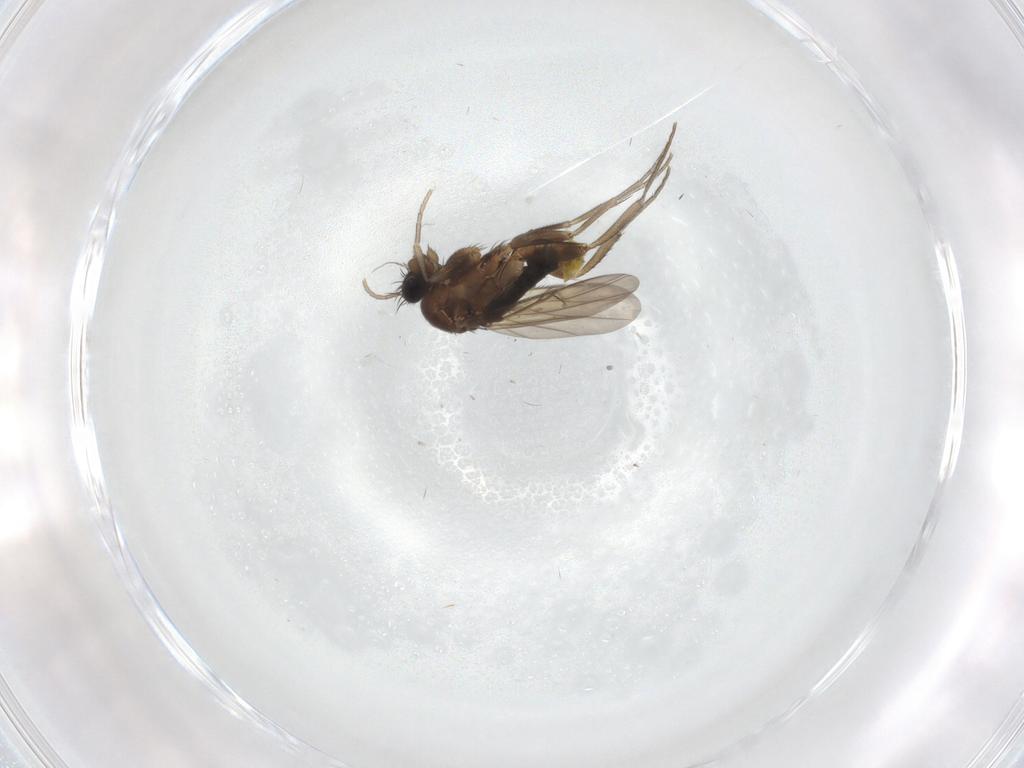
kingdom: Animalia
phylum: Arthropoda
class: Insecta
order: Diptera
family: Phoridae
